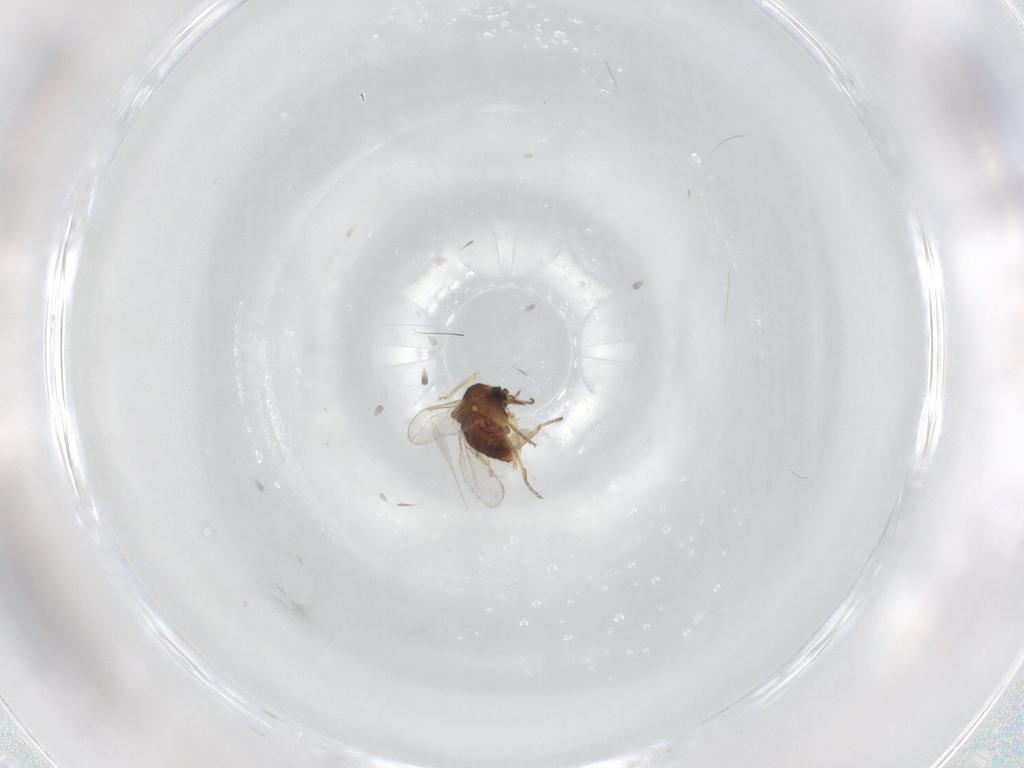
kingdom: Animalia
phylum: Arthropoda
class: Insecta
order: Diptera
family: Ceratopogonidae
